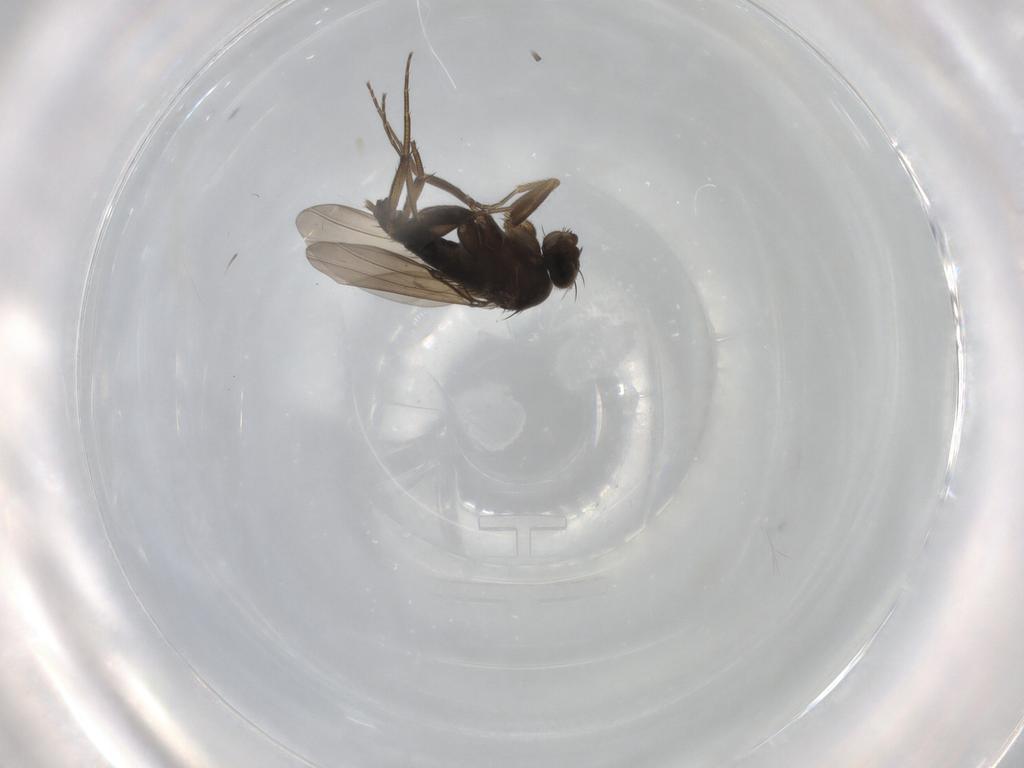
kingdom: Animalia
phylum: Arthropoda
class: Insecta
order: Diptera
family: Phoridae
